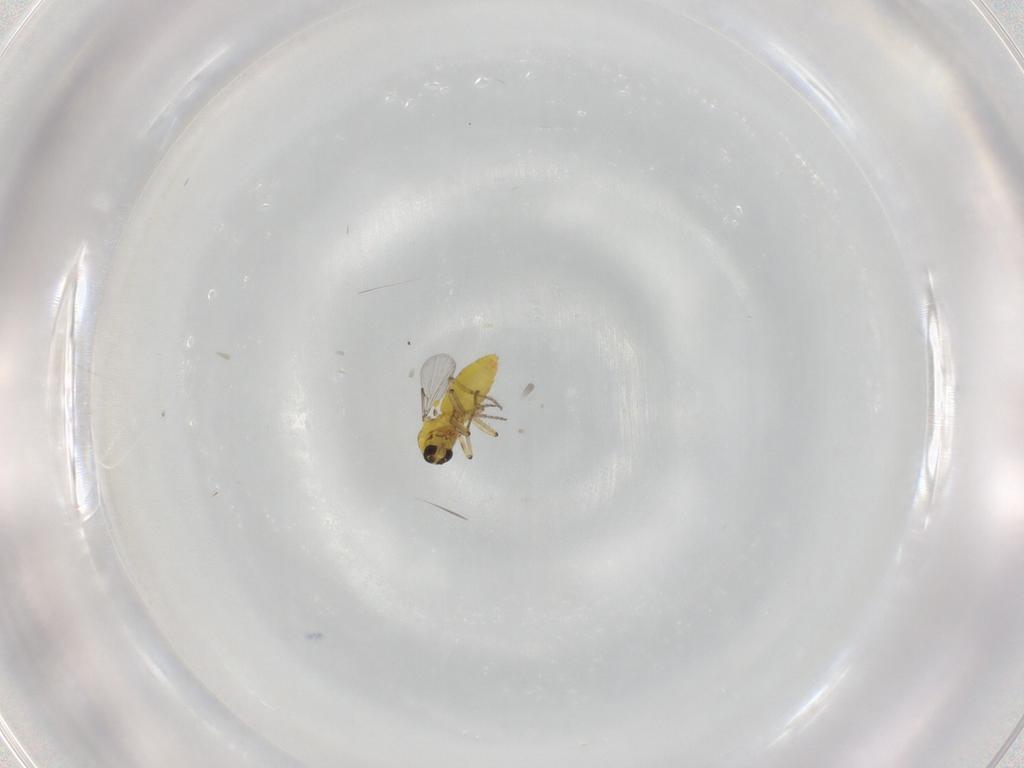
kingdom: Animalia
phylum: Arthropoda
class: Insecta
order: Diptera
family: Ceratopogonidae
